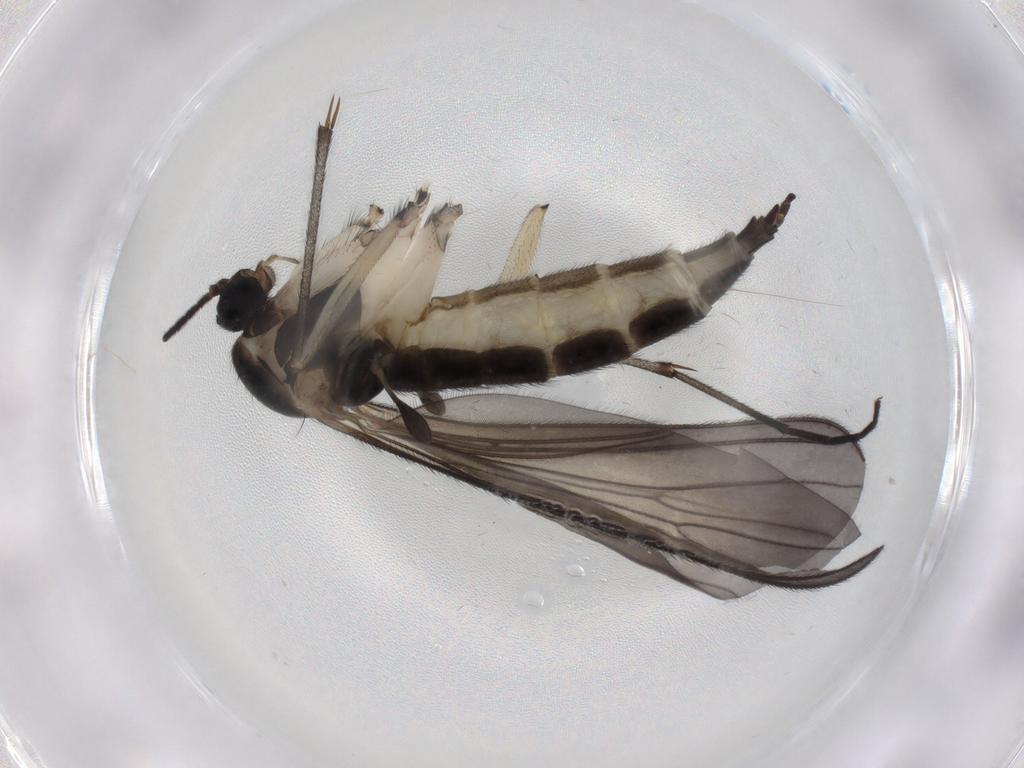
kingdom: Animalia
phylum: Arthropoda
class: Insecta
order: Diptera
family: Sciaridae
